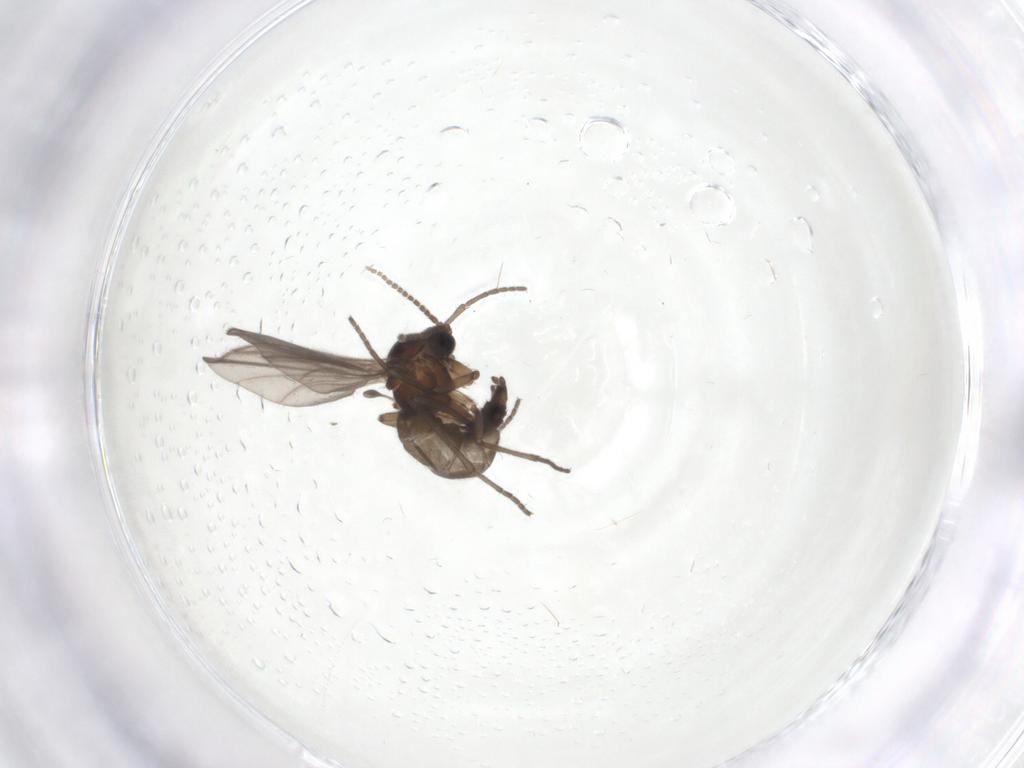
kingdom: Animalia
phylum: Arthropoda
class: Insecta
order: Diptera
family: Sciaridae
